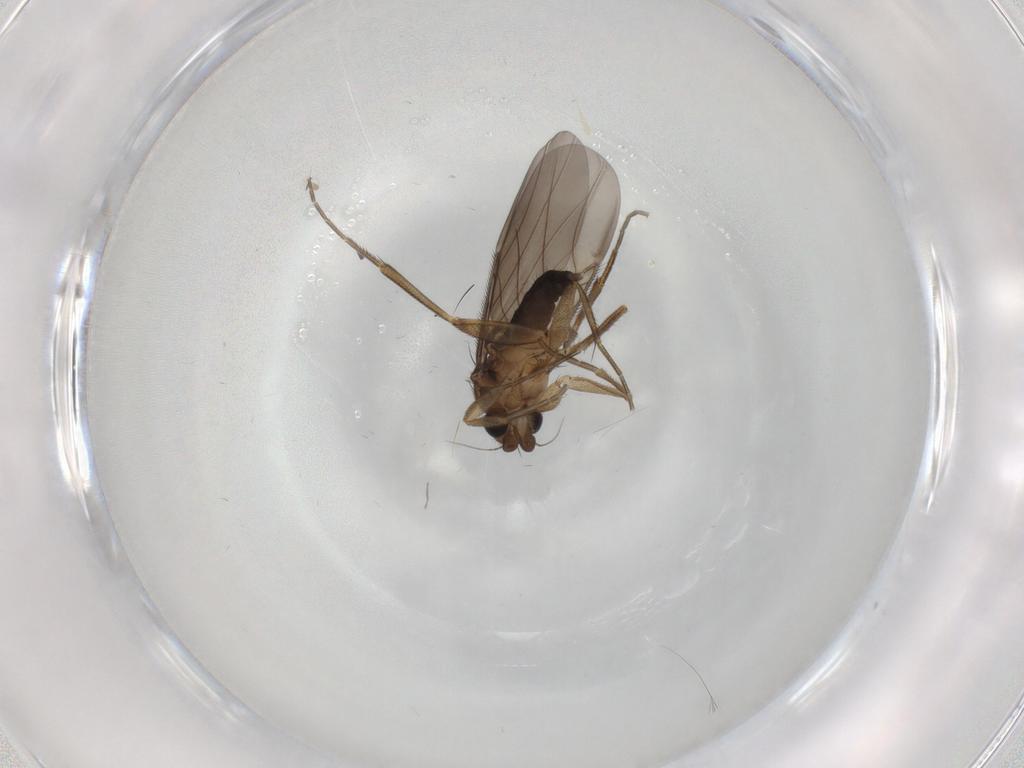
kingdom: Animalia
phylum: Arthropoda
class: Insecta
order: Diptera
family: Phoridae
